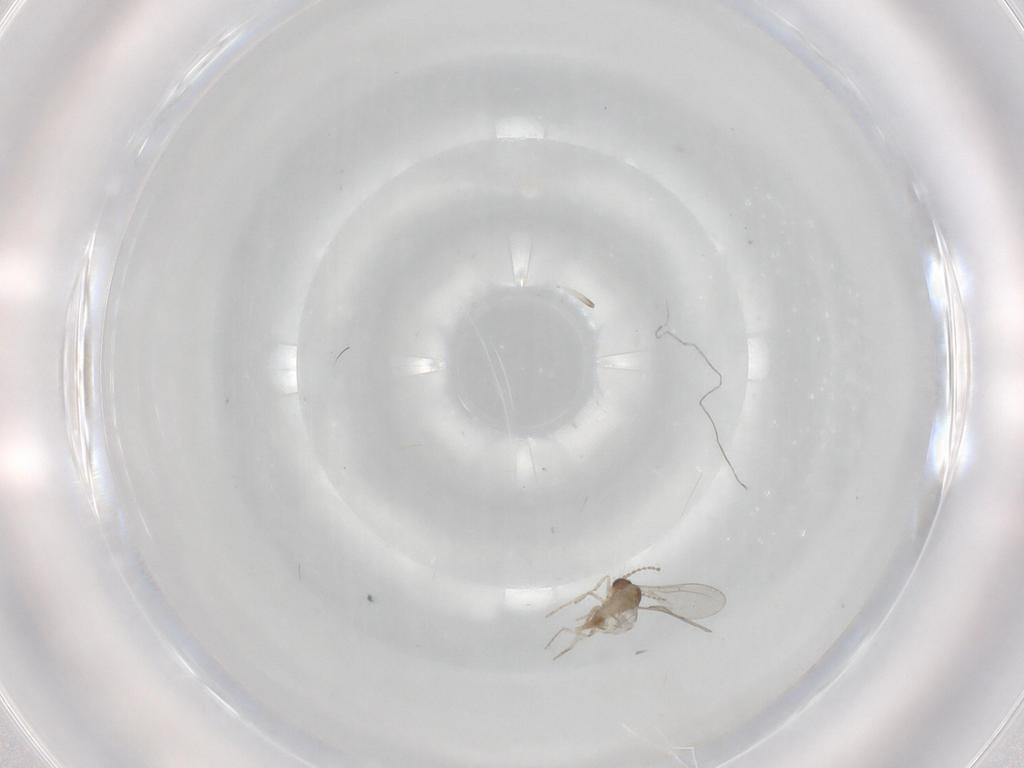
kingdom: Animalia
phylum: Arthropoda
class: Insecta
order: Diptera
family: Cecidomyiidae
